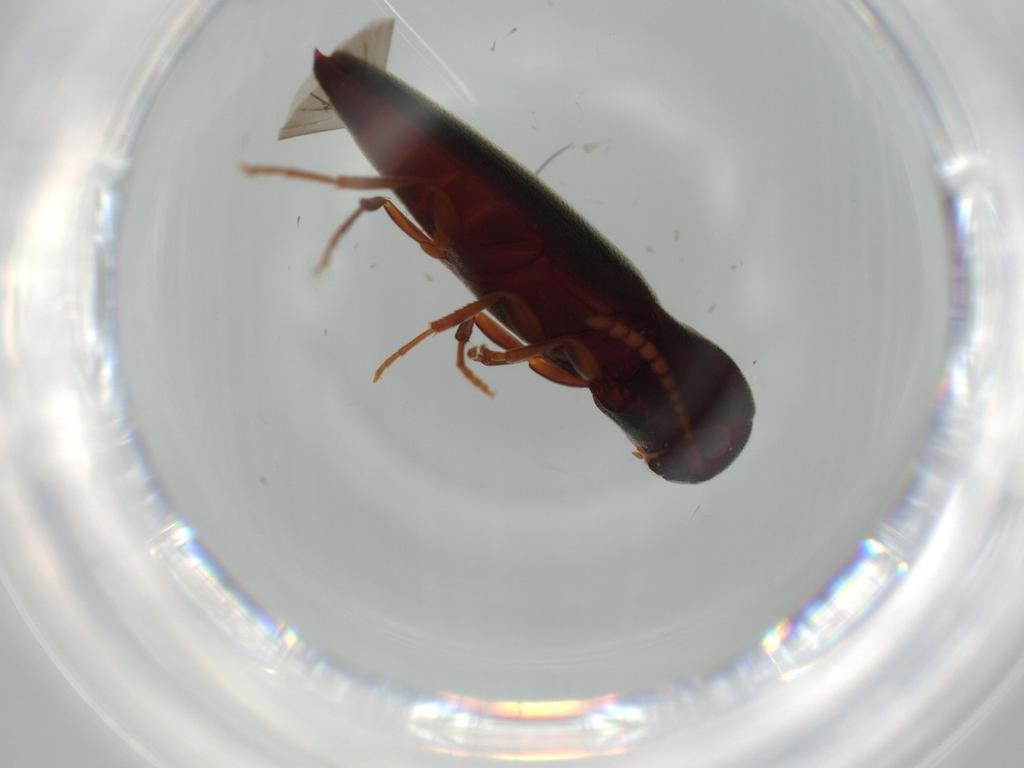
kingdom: Animalia
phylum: Arthropoda
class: Insecta
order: Coleoptera
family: Eucnemidae
